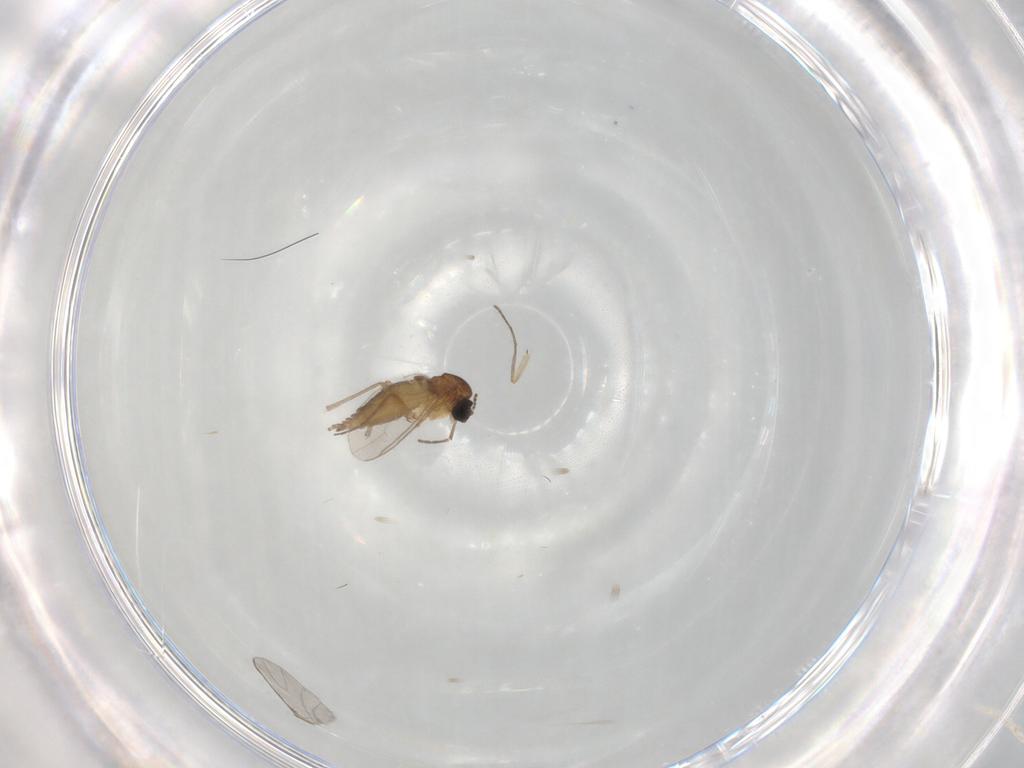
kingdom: Animalia
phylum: Arthropoda
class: Insecta
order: Diptera
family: Sciaridae
